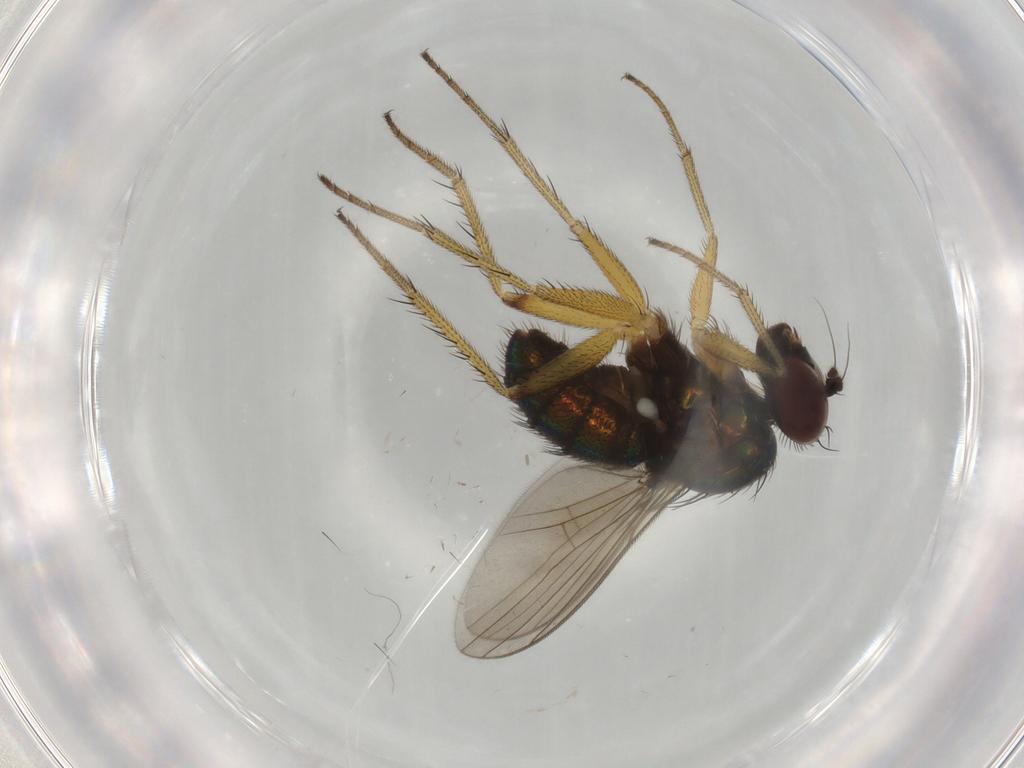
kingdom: Animalia
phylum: Arthropoda
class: Insecta
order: Diptera
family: Dolichopodidae
